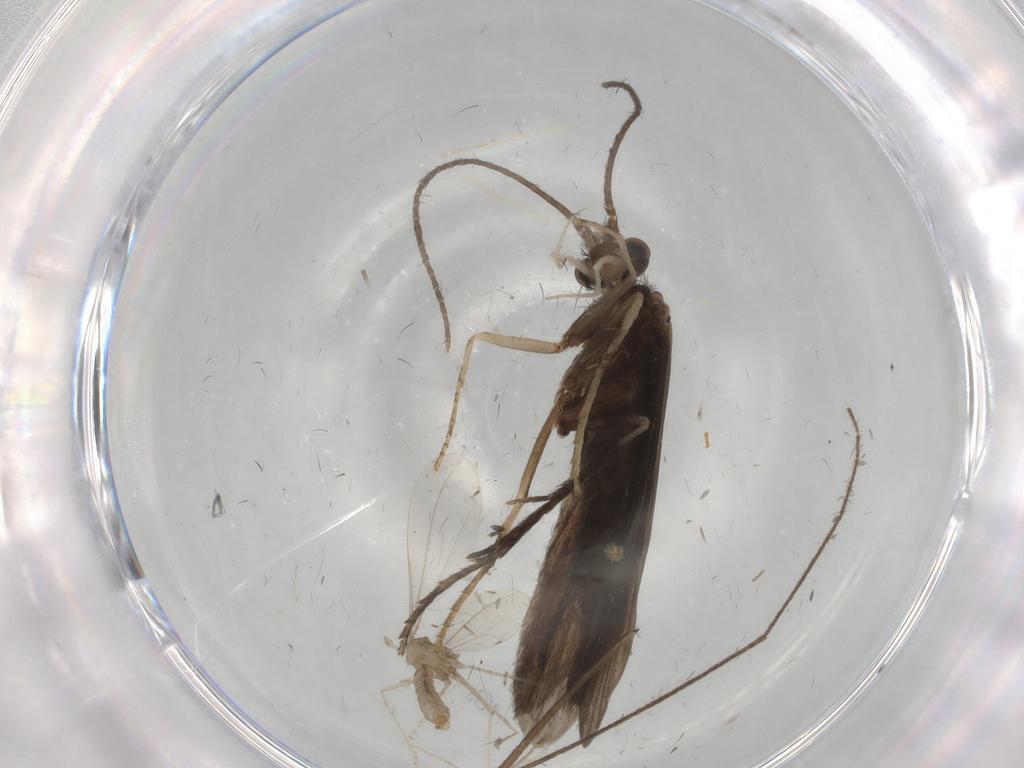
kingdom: Animalia
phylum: Arthropoda
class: Insecta
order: Trichoptera
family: Xiphocentronidae
